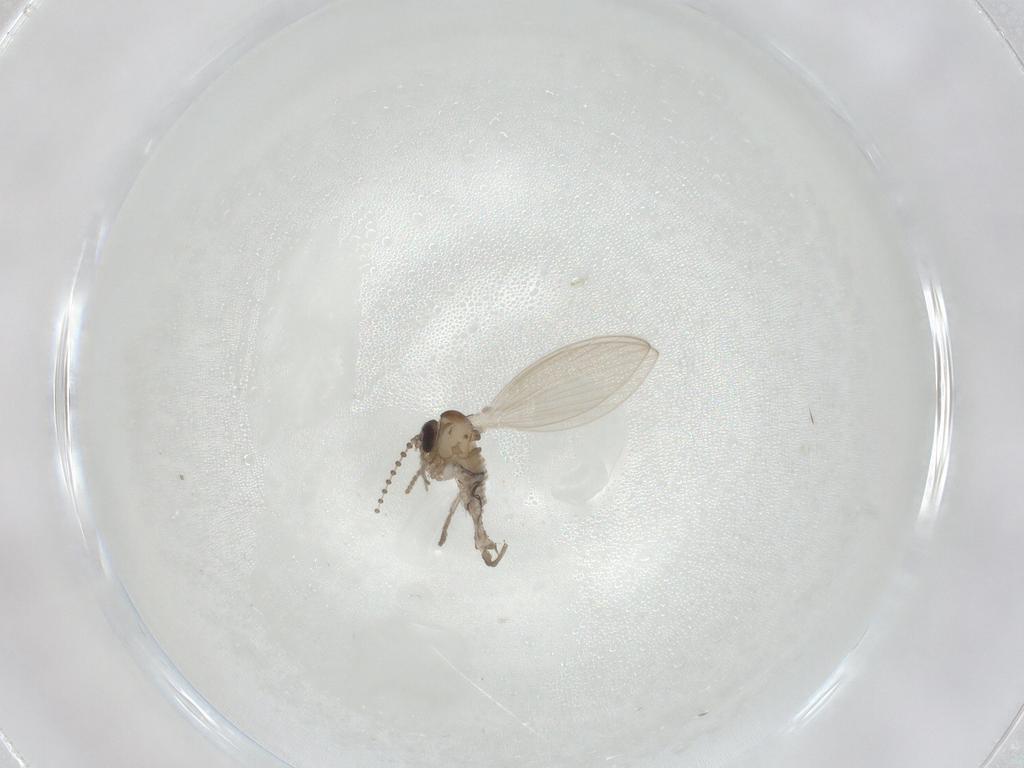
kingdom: Animalia
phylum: Arthropoda
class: Insecta
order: Diptera
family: Psychodidae
